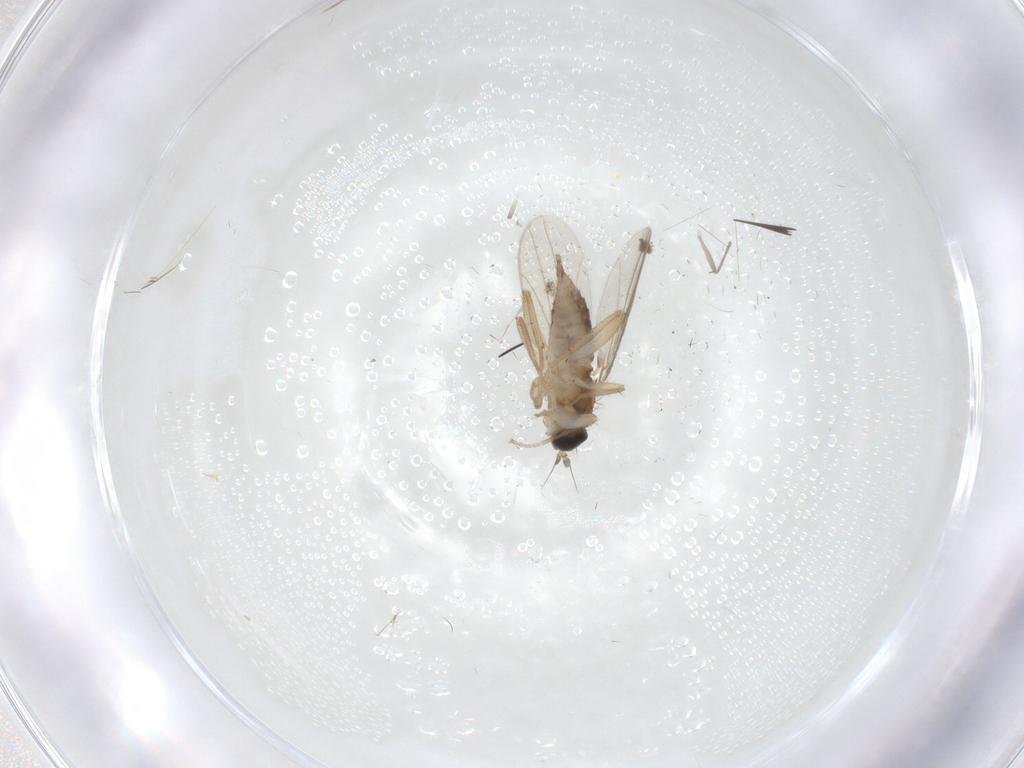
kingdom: Animalia
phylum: Arthropoda
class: Insecta
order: Diptera
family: Hybotidae
